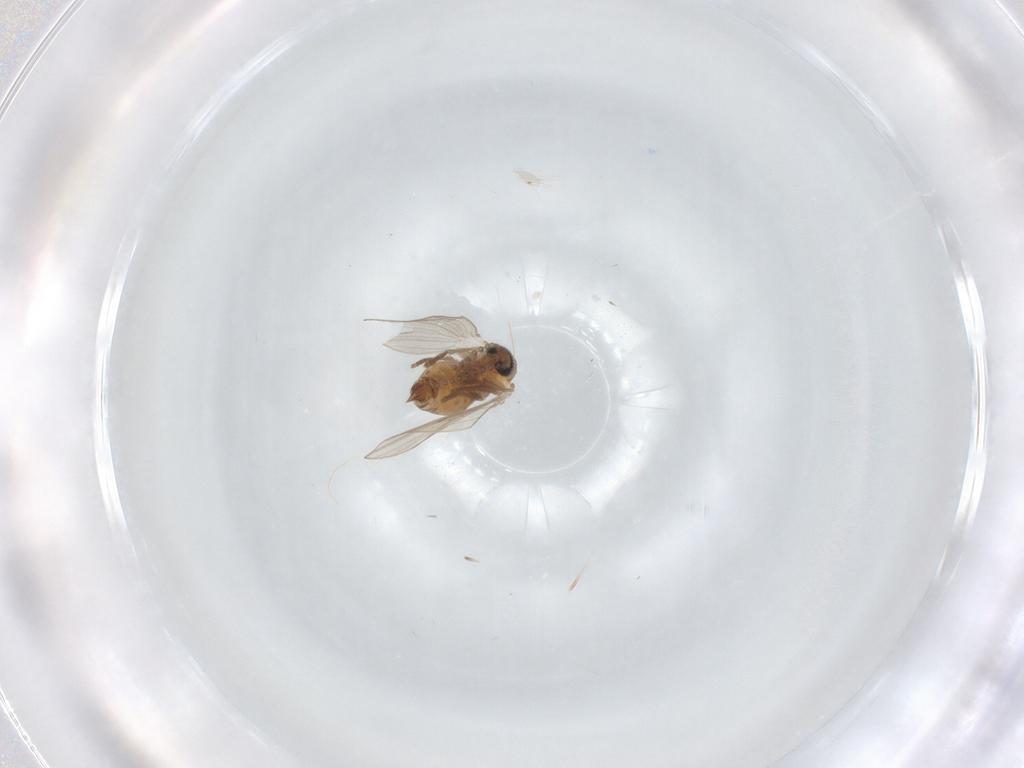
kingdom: Animalia
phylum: Arthropoda
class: Insecta
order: Diptera
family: Psychodidae
